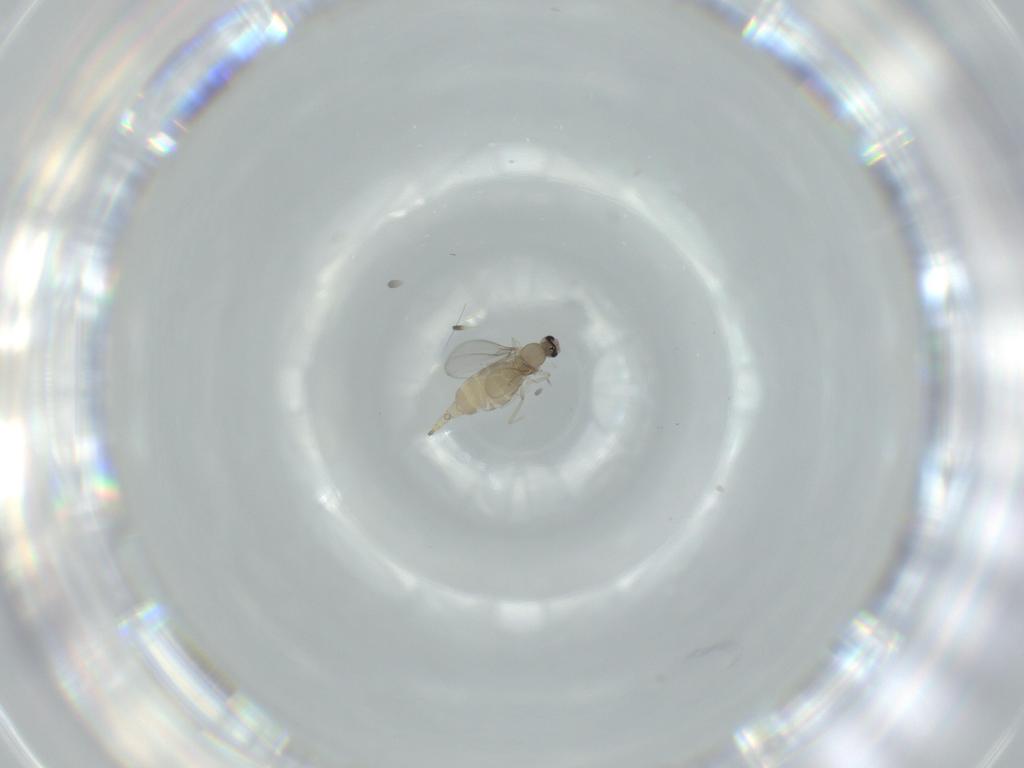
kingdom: Animalia
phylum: Arthropoda
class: Insecta
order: Diptera
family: Cecidomyiidae
